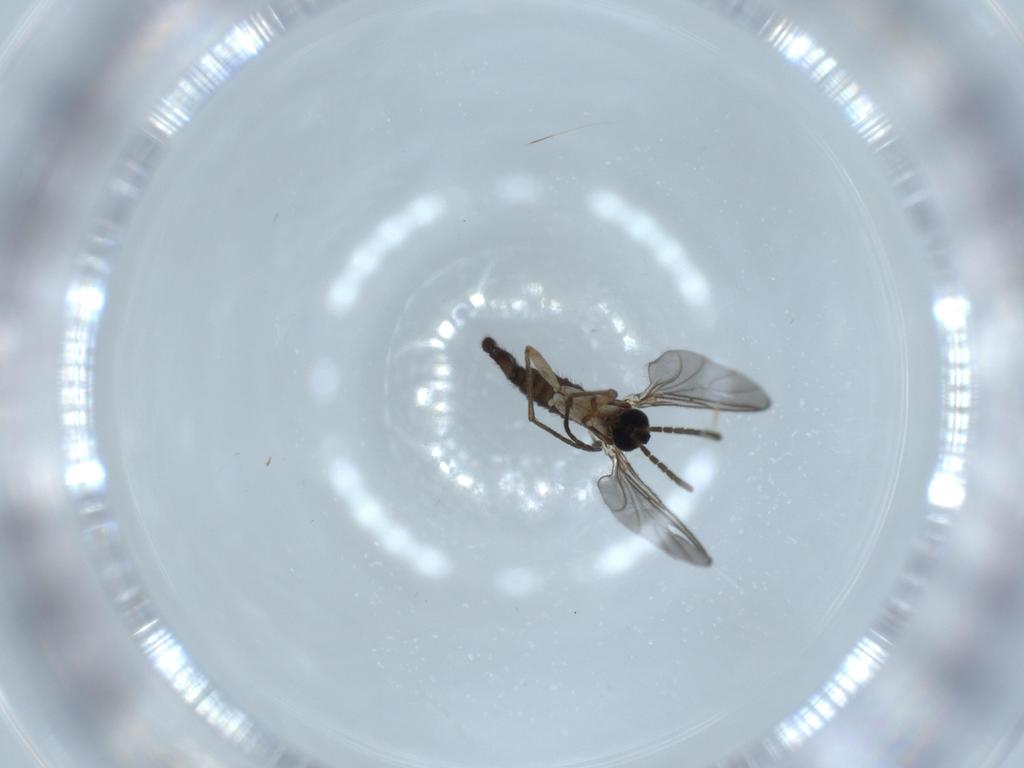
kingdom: Animalia
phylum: Arthropoda
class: Insecta
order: Diptera
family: Sciaridae
